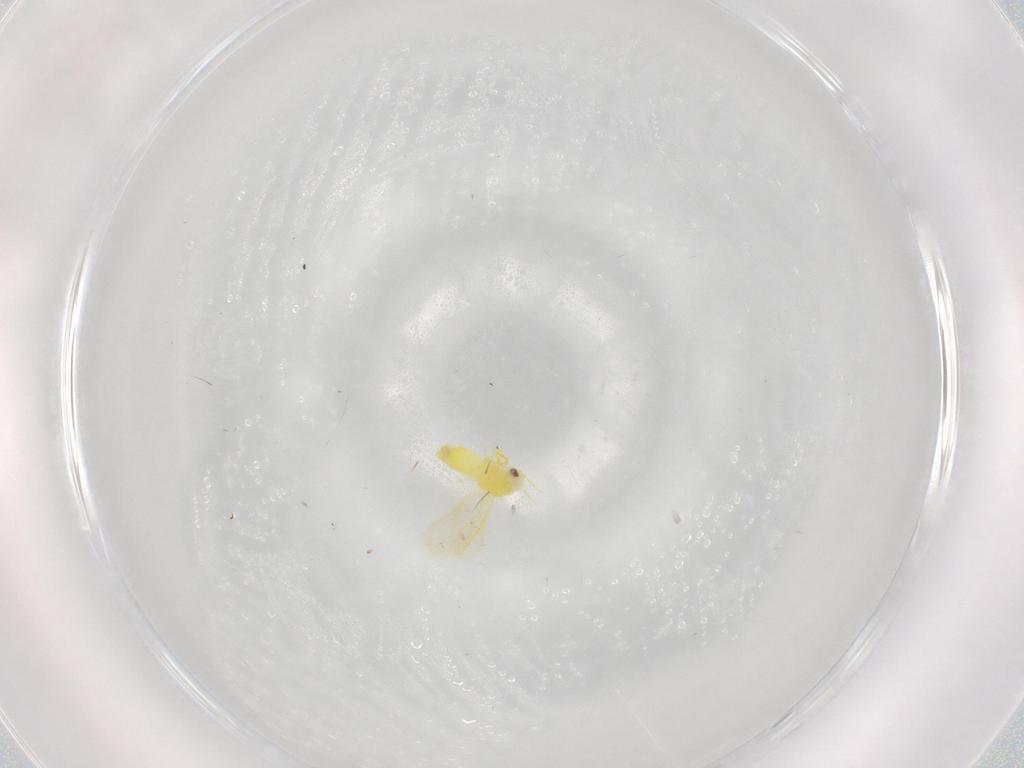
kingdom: Animalia
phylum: Arthropoda
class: Insecta
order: Hemiptera
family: Aleyrodidae
